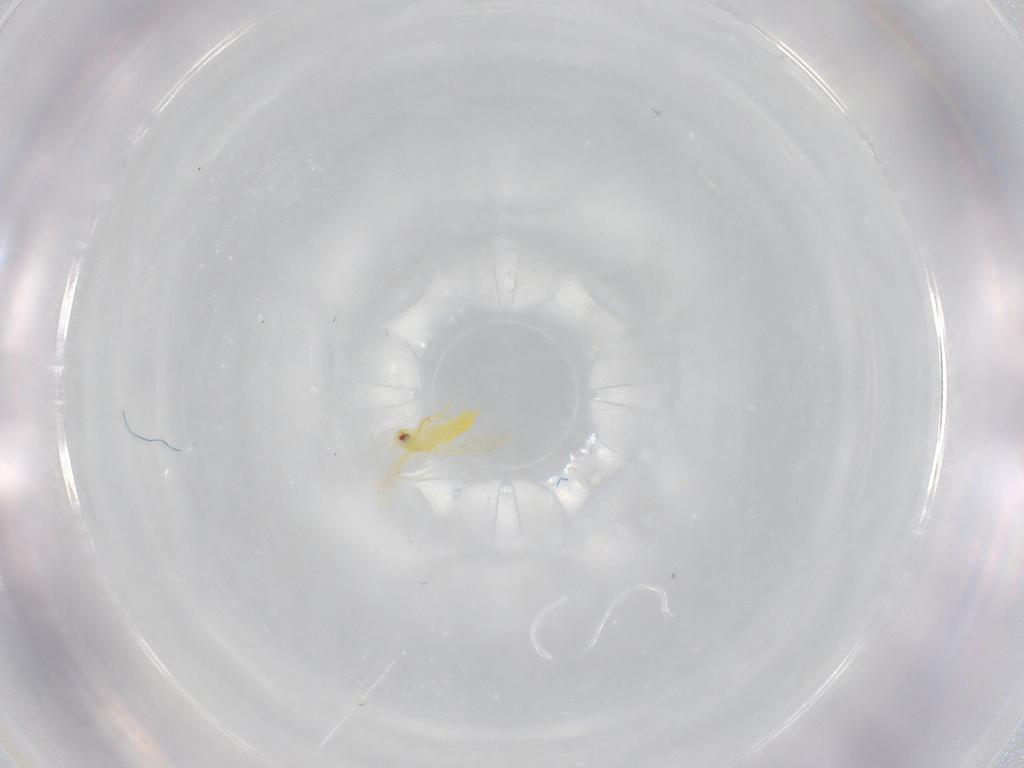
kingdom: Animalia
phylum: Arthropoda
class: Insecta
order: Hemiptera
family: Aleyrodidae
